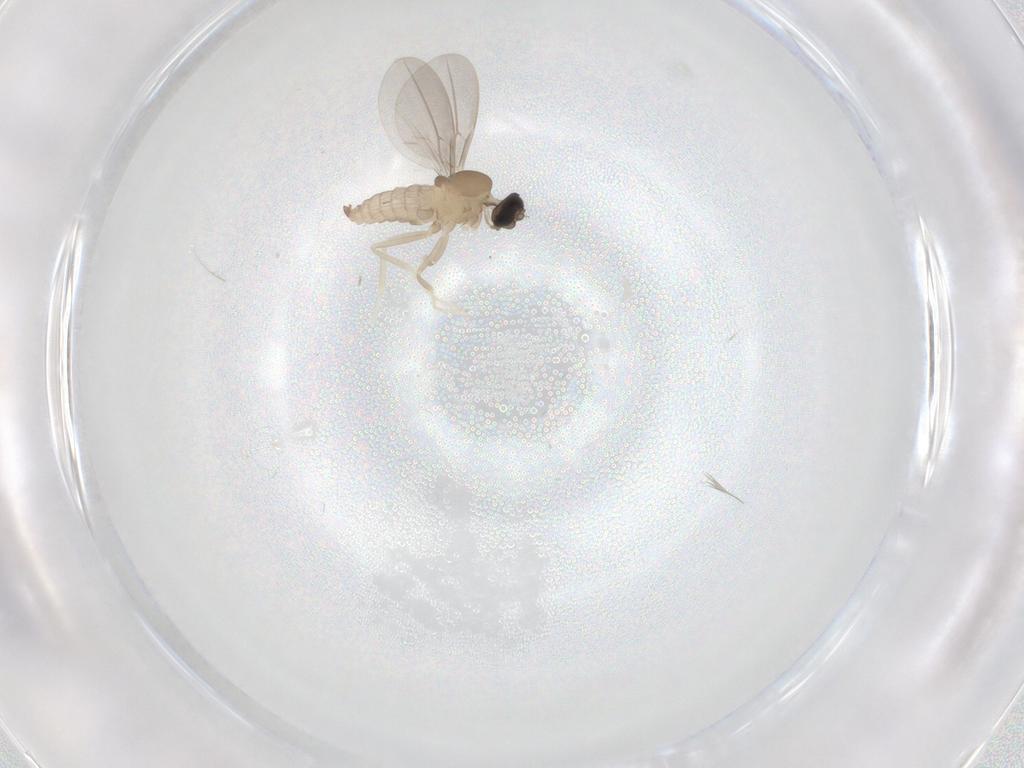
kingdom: Animalia
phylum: Arthropoda
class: Insecta
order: Diptera
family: Cecidomyiidae
